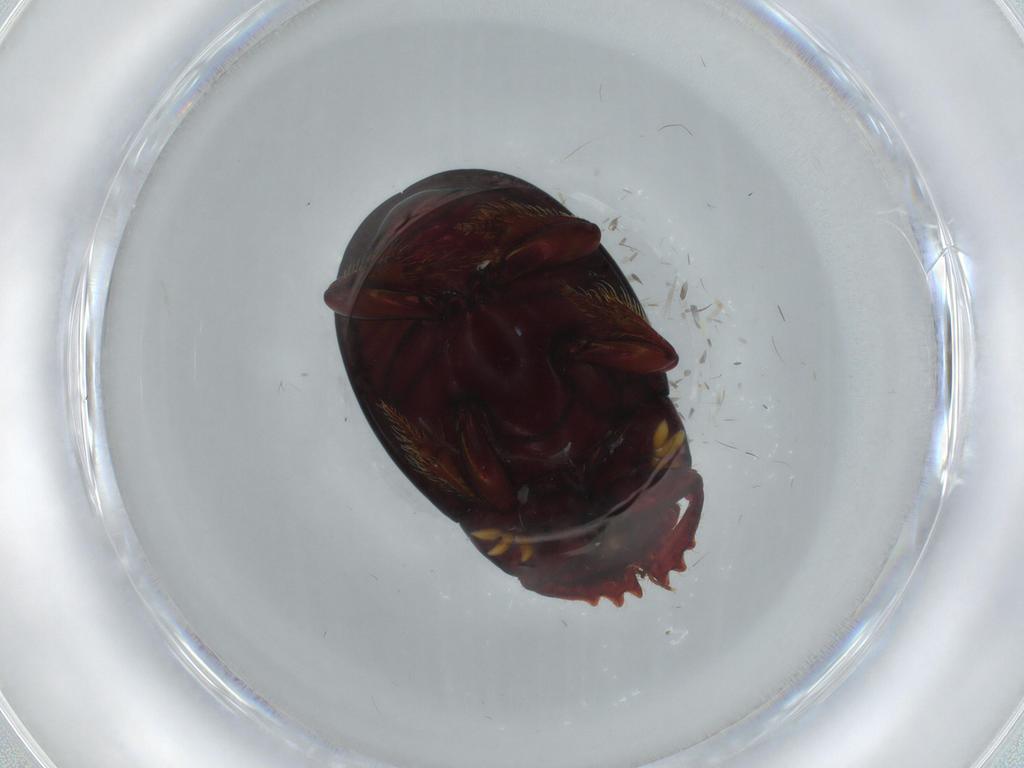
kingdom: Animalia
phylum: Arthropoda
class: Insecta
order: Coleoptera
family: Chrysomelidae
